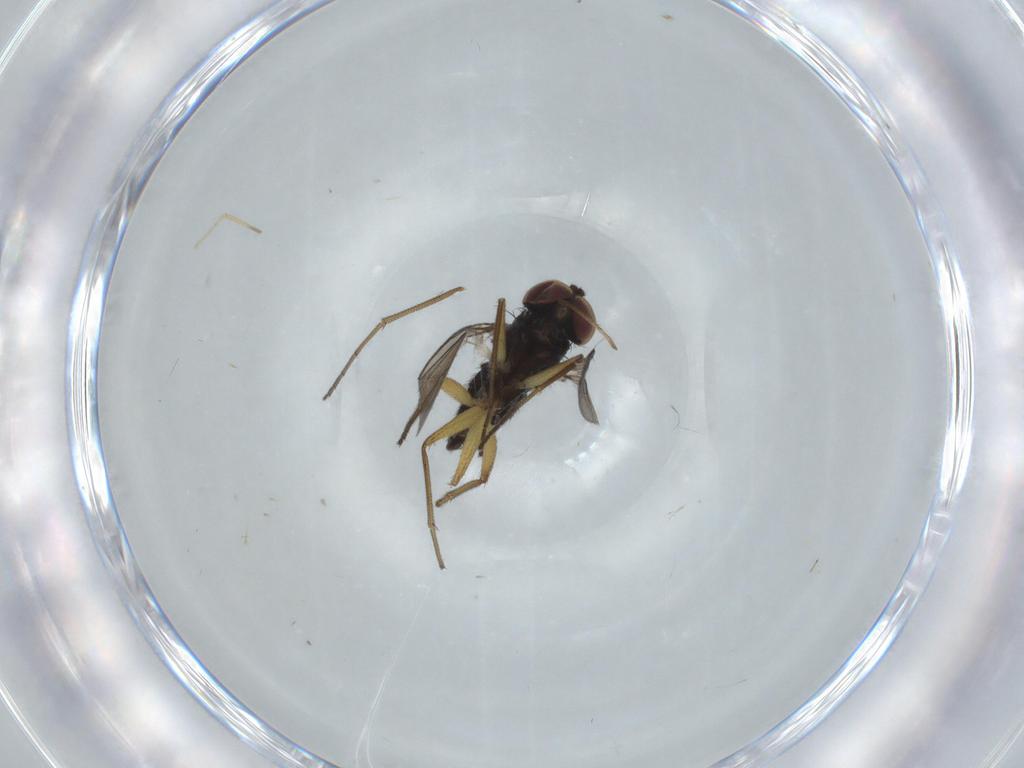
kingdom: Animalia
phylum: Arthropoda
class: Insecta
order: Diptera
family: Dolichopodidae
